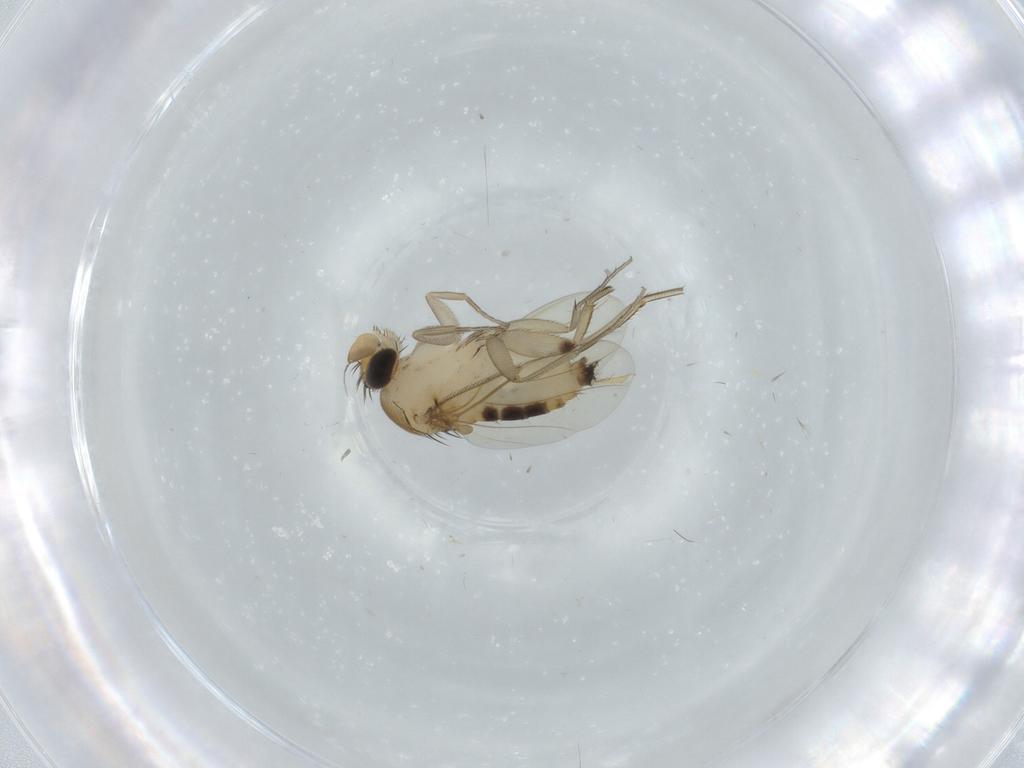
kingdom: Animalia
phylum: Arthropoda
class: Insecta
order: Diptera
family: Phoridae
